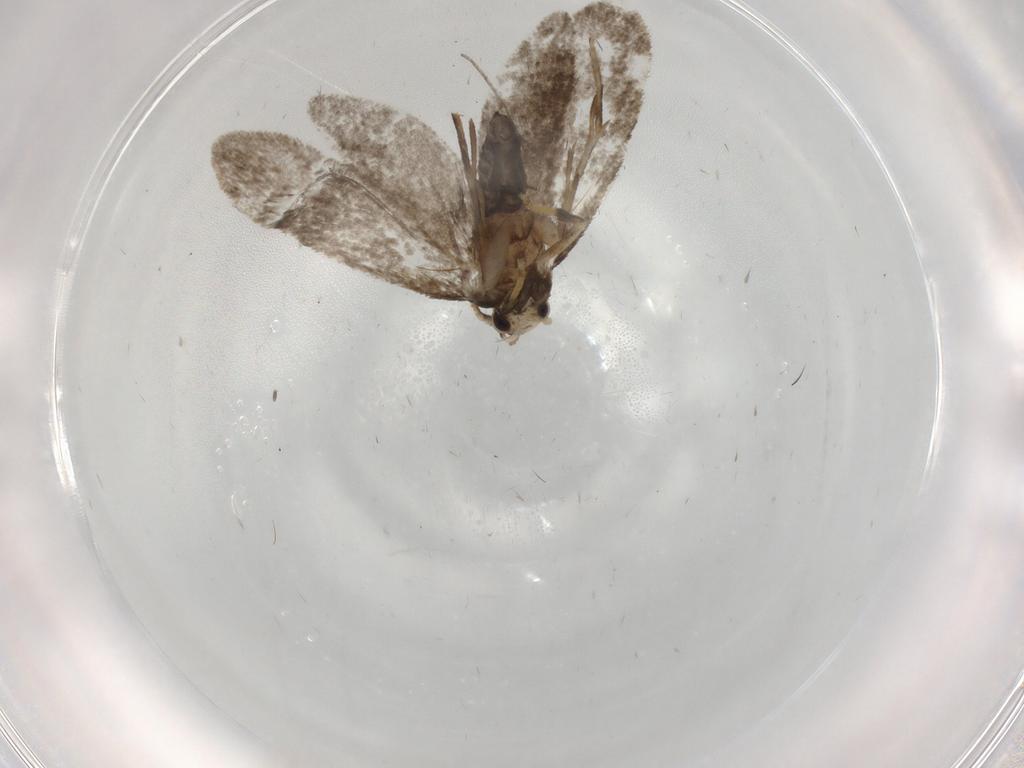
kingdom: Animalia
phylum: Arthropoda
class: Insecta
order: Lepidoptera
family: Psychidae
